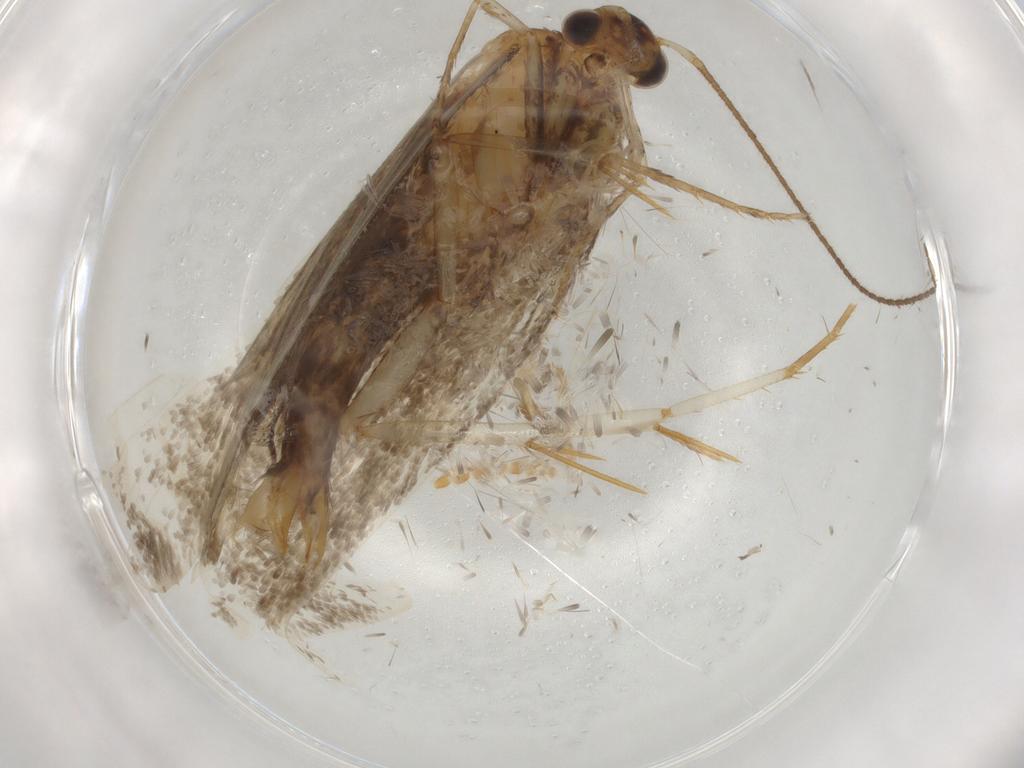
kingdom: Animalia
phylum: Arthropoda
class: Insecta
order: Lepidoptera
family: Oecophoridae
